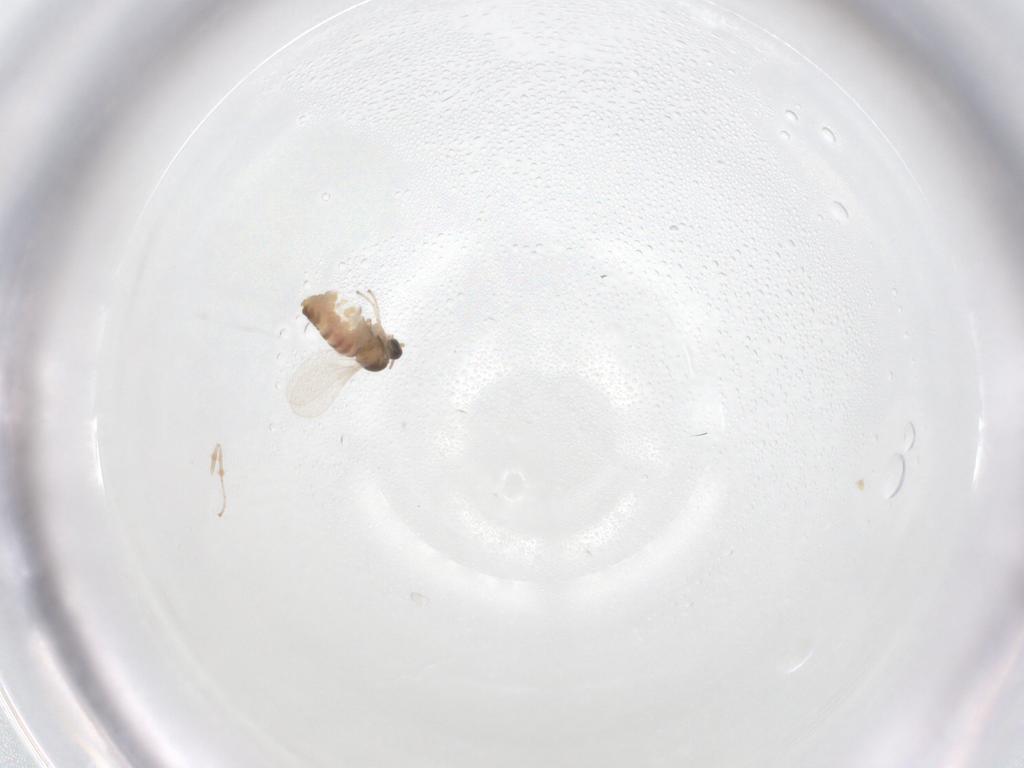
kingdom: Animalia
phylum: Arthropoda
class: Insecta
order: Diptera
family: Cecidomyiidae
